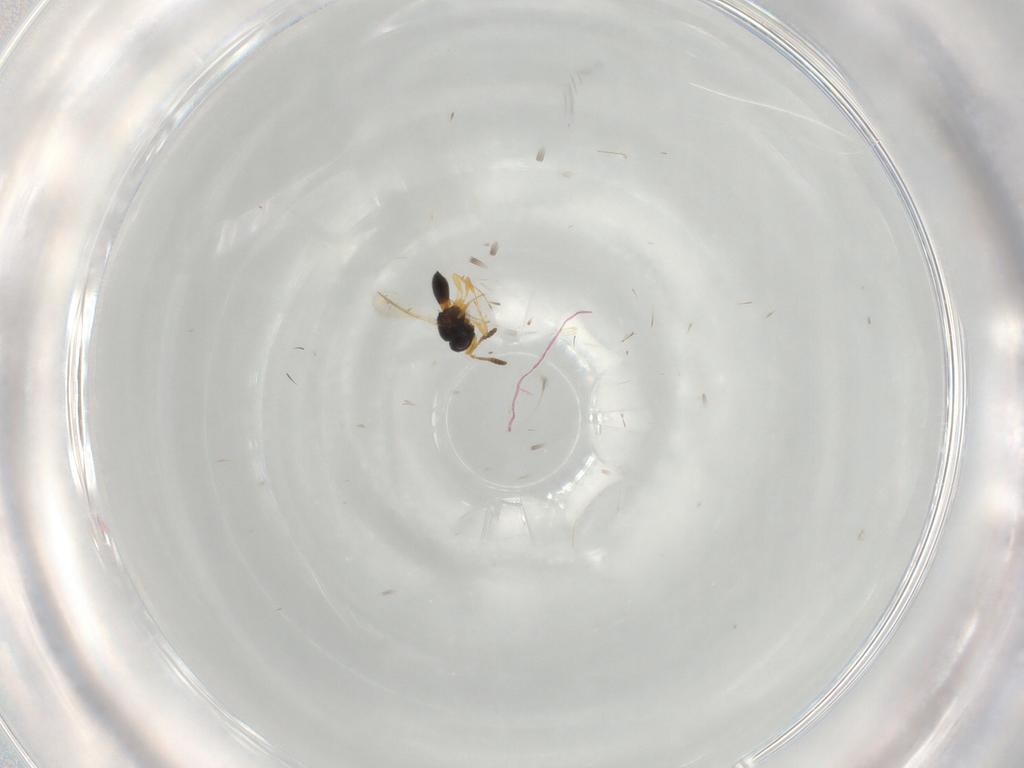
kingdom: Animalia
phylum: Arthropoda
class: Insecta
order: Hymenoptera
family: Scelionidae
